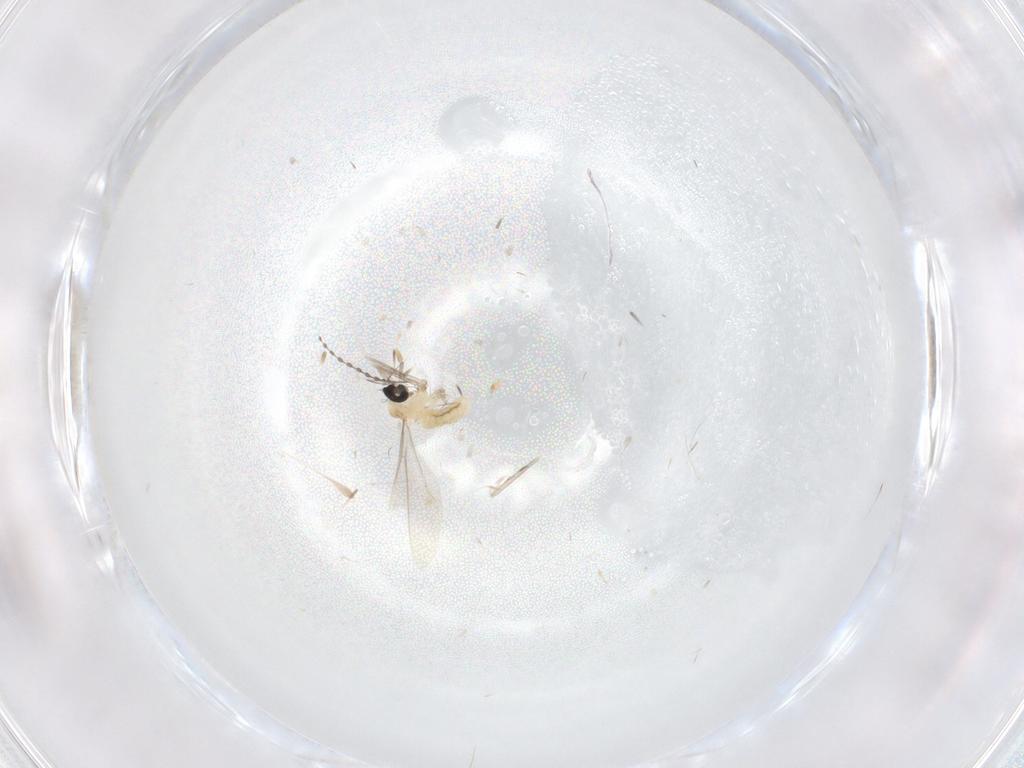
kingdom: Animalia
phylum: Arthropoda
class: Insecta
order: Diptera
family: Cecidomyiidae
